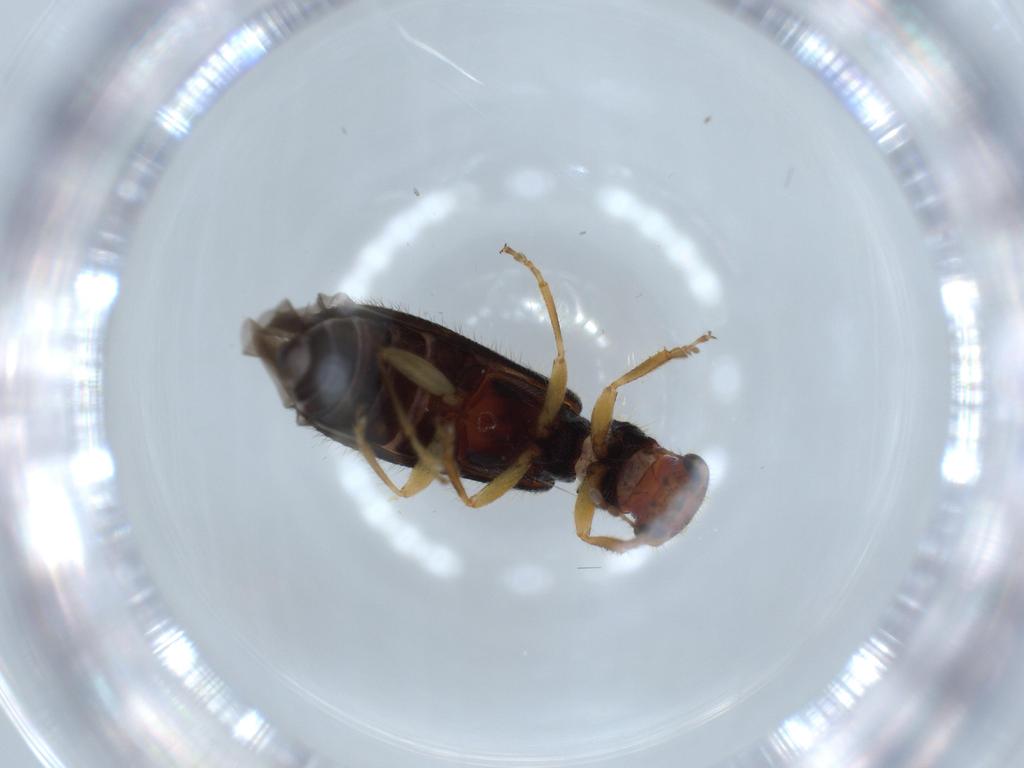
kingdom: Animalia
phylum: Arthropoda
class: Insecta
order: Coleoptera
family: Cleridae
